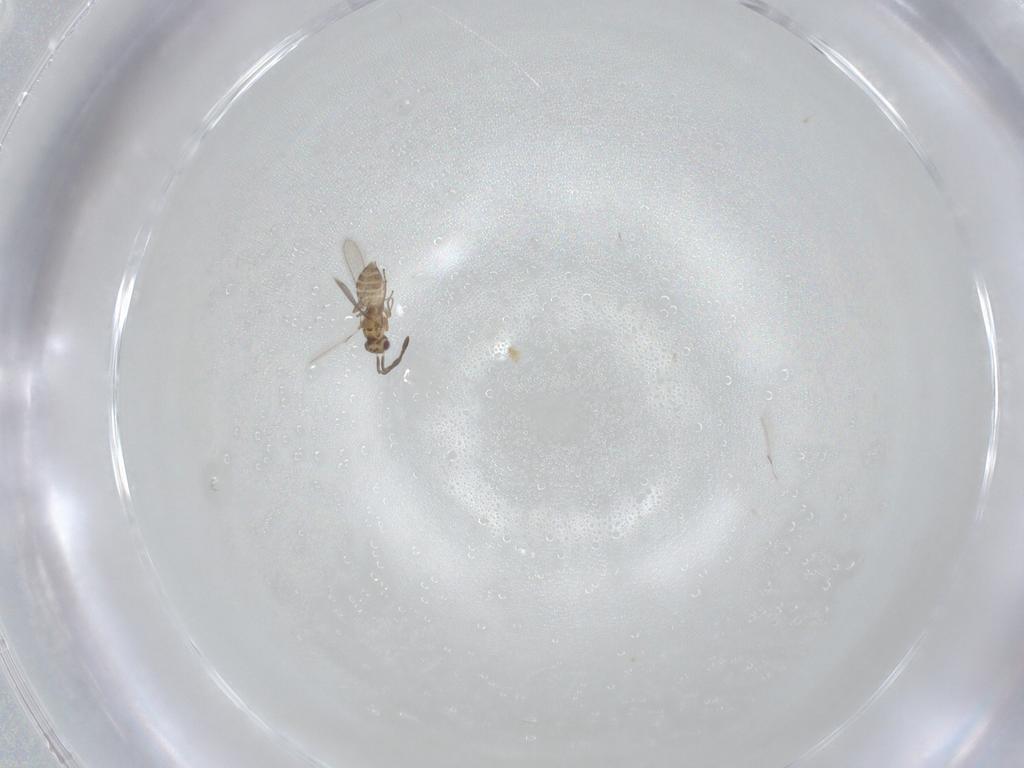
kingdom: Animalia
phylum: Arthropoda
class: Insecta
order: Hymenoptera
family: Mymaridae
